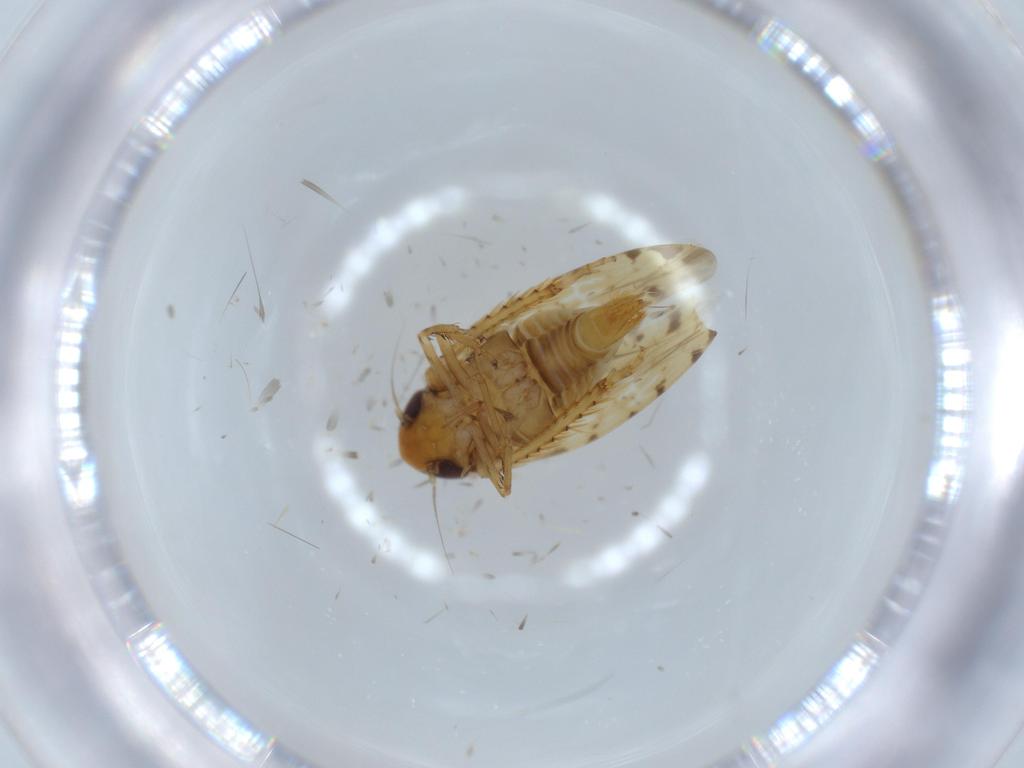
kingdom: Animalia
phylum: Arthropoda
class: Insecta
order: Hemiptera
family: Cicadellidae
